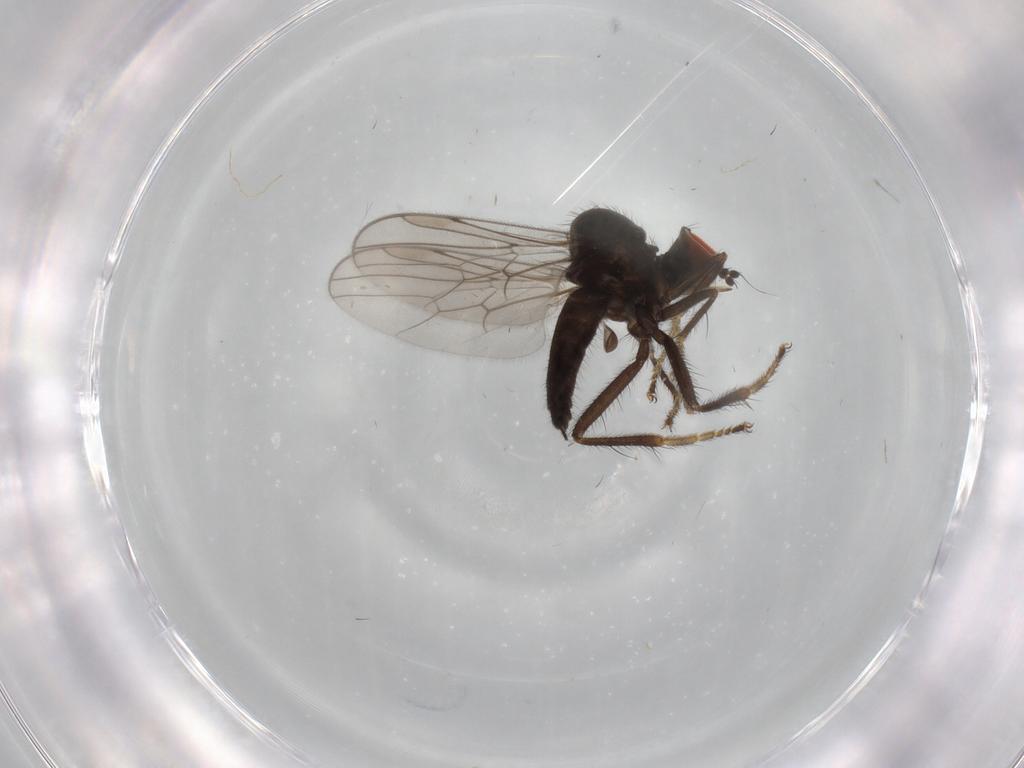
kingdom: Animalia
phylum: Arthropoda
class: Insecta
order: Diptera
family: Hybotidae
